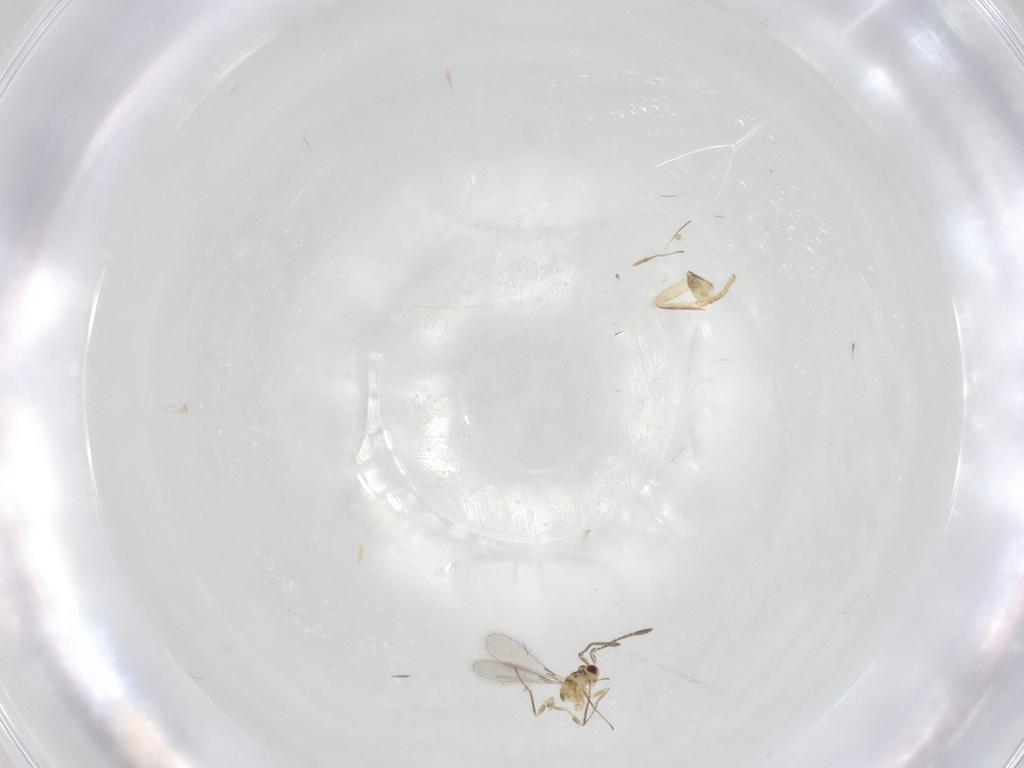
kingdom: Animalia
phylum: Arthropoda
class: Insecta
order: Hymenoptera
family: Mymaridae
